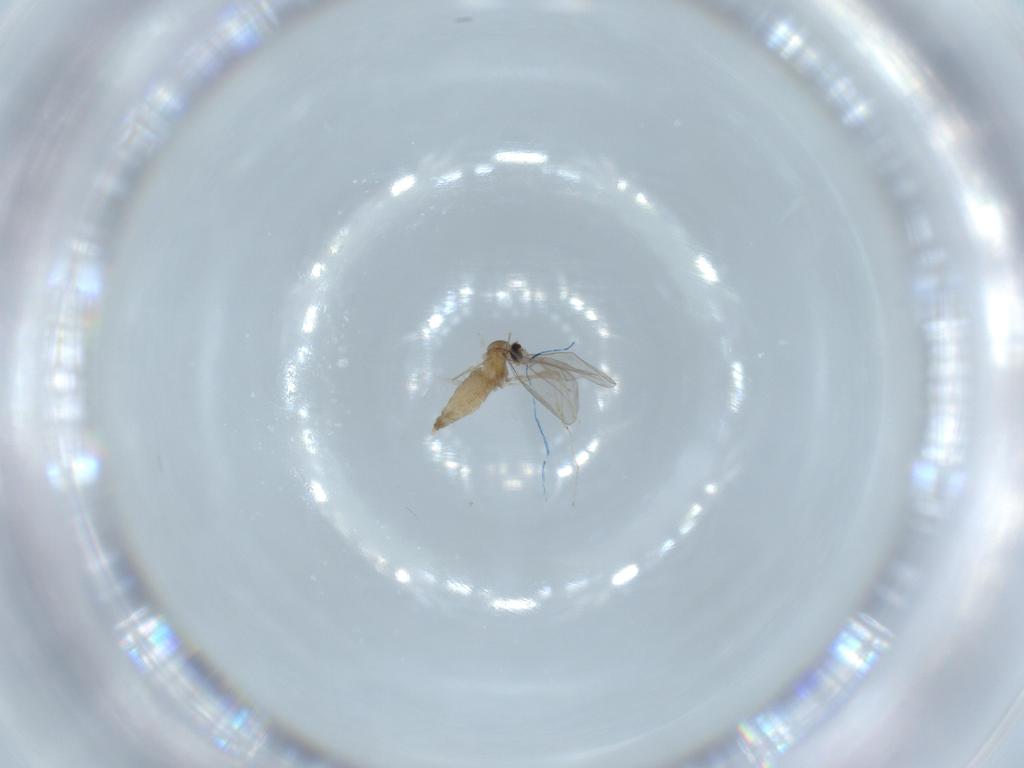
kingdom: Animalia
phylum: Arthropoda
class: Insecta
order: Diptera
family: Cecidomyiidae
